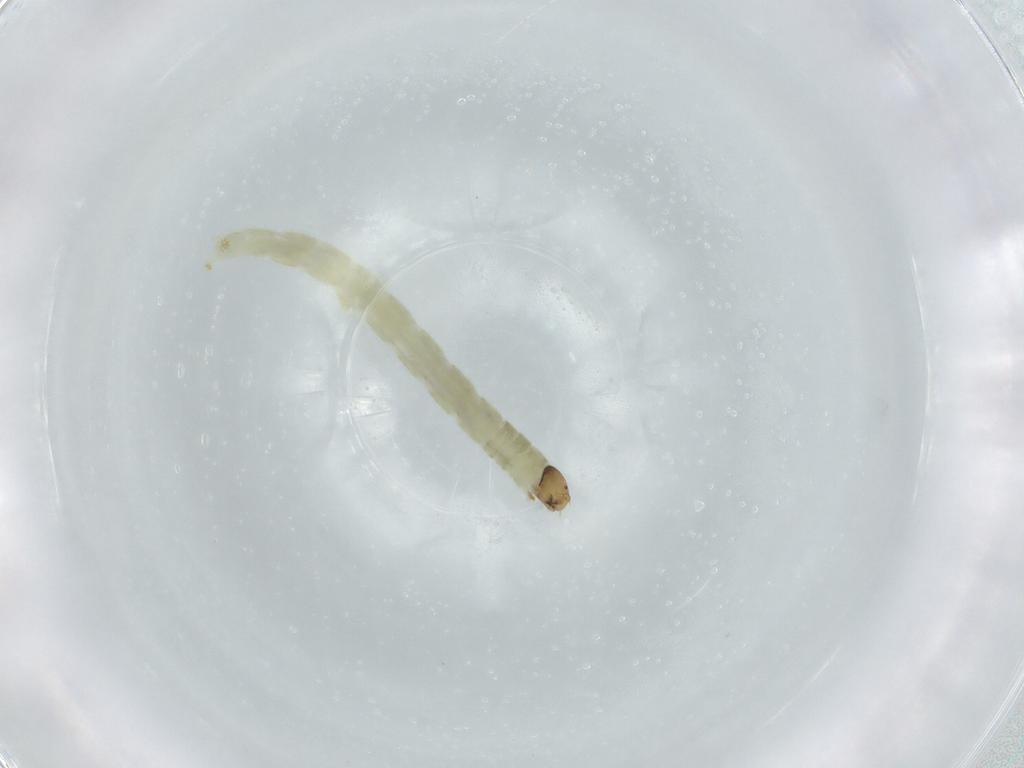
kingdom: Animalia
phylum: Arthropoda
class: Insecta
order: Diptera
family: Chironomidae
